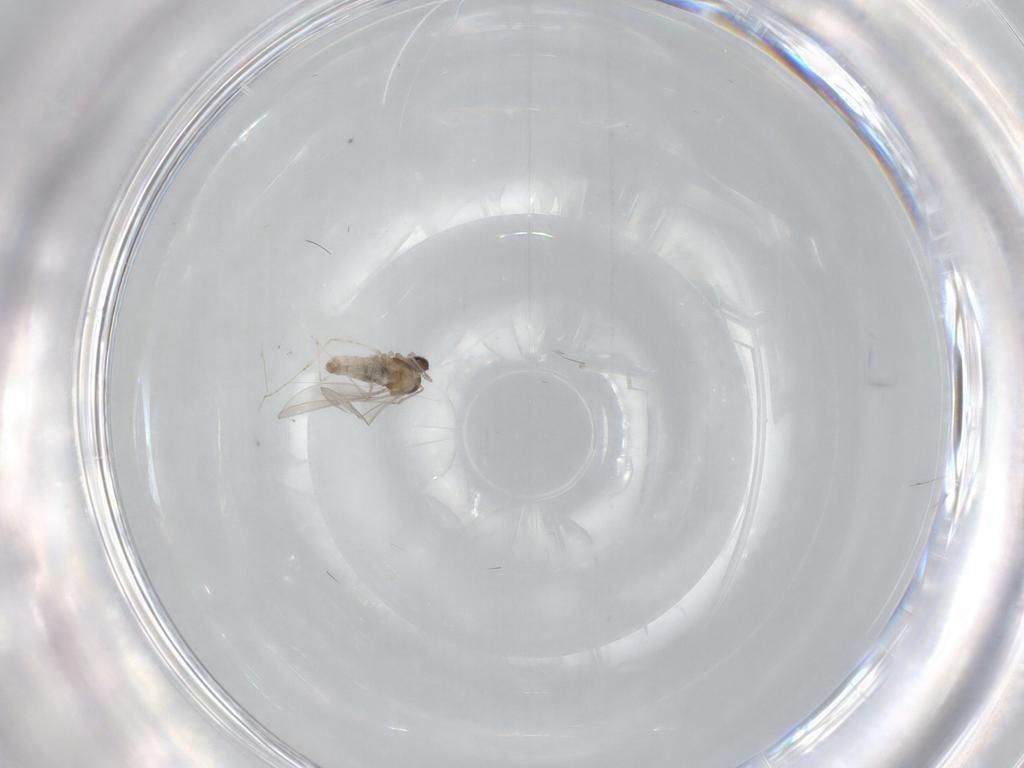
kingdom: Animalia
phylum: Arthropoda
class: Insecta
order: Diptera
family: Cecidomyiidae
